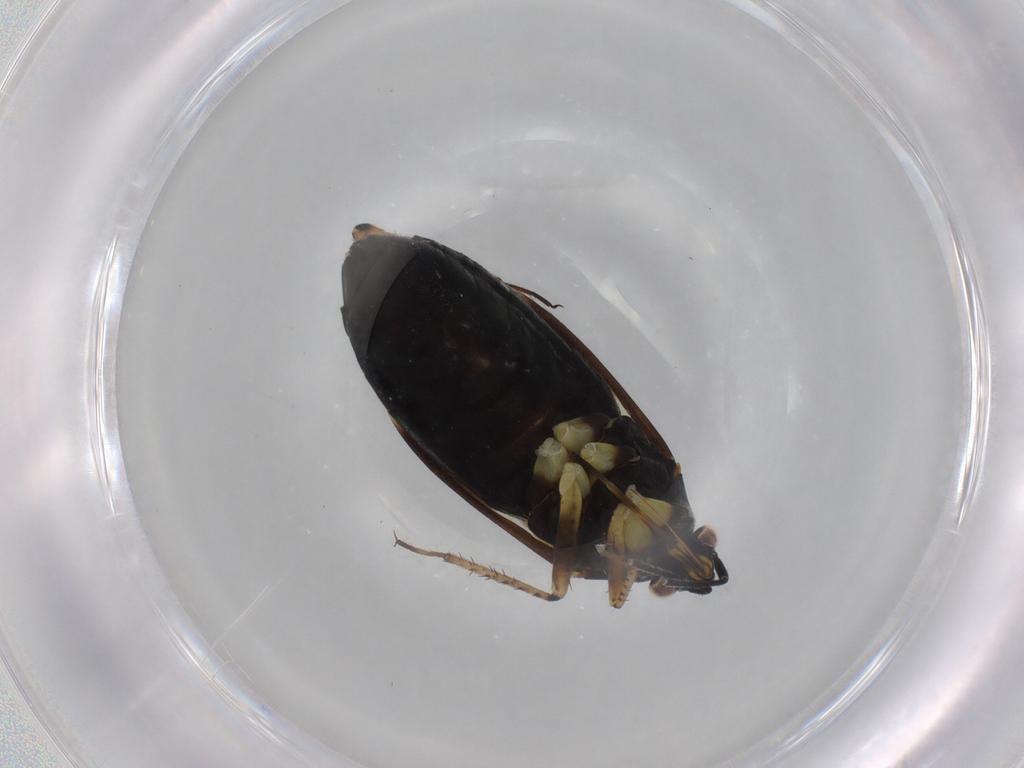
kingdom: Animalia
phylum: Arthropoda
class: Insecta
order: Hemiptera
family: Miridae
